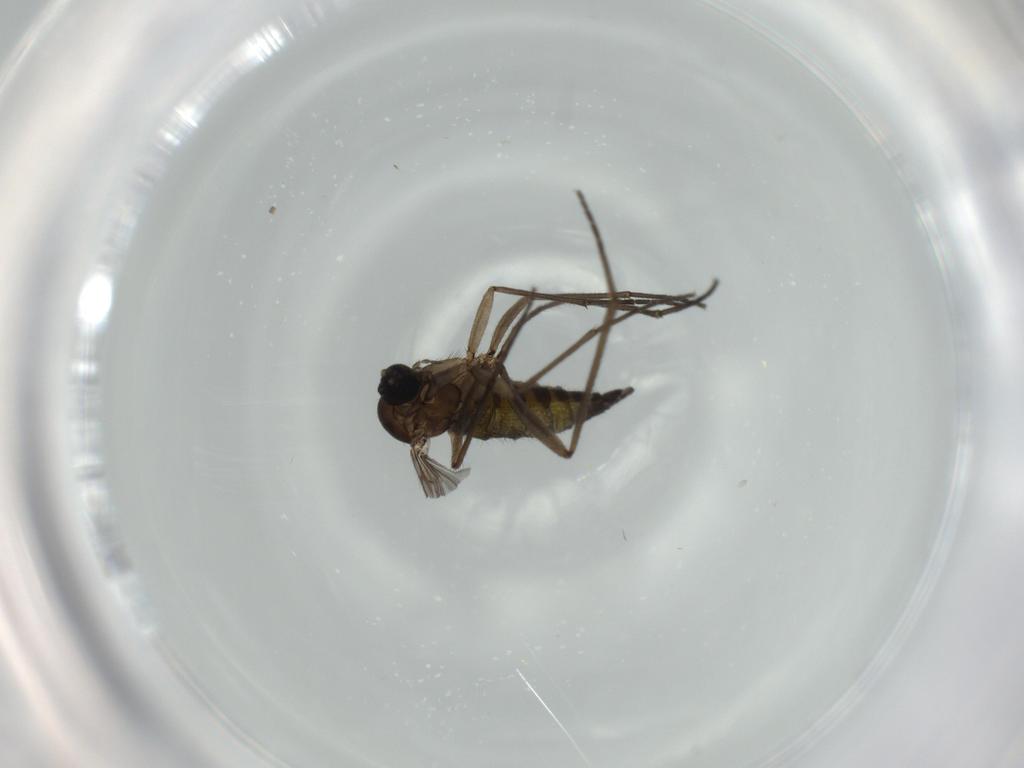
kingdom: Animalia
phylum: Arthropoda
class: Insecta
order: Diptera
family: Sciaridae
